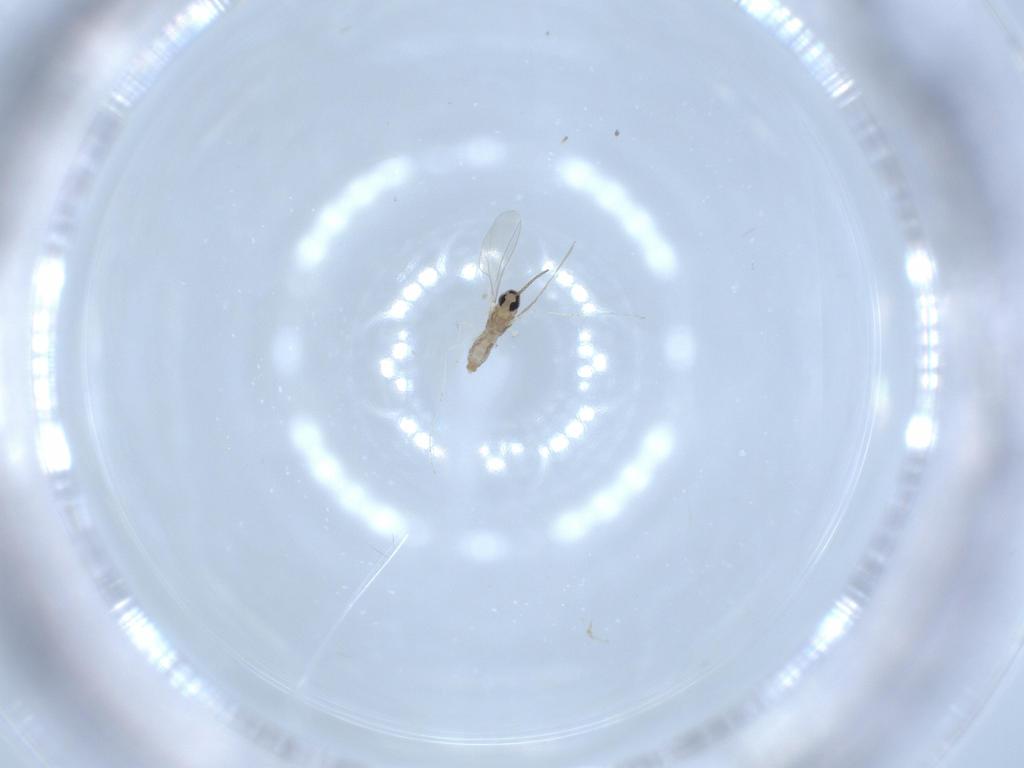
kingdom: Animalia
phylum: Arthropoda
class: Insecta
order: Diptera
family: Cecidomyiidae
